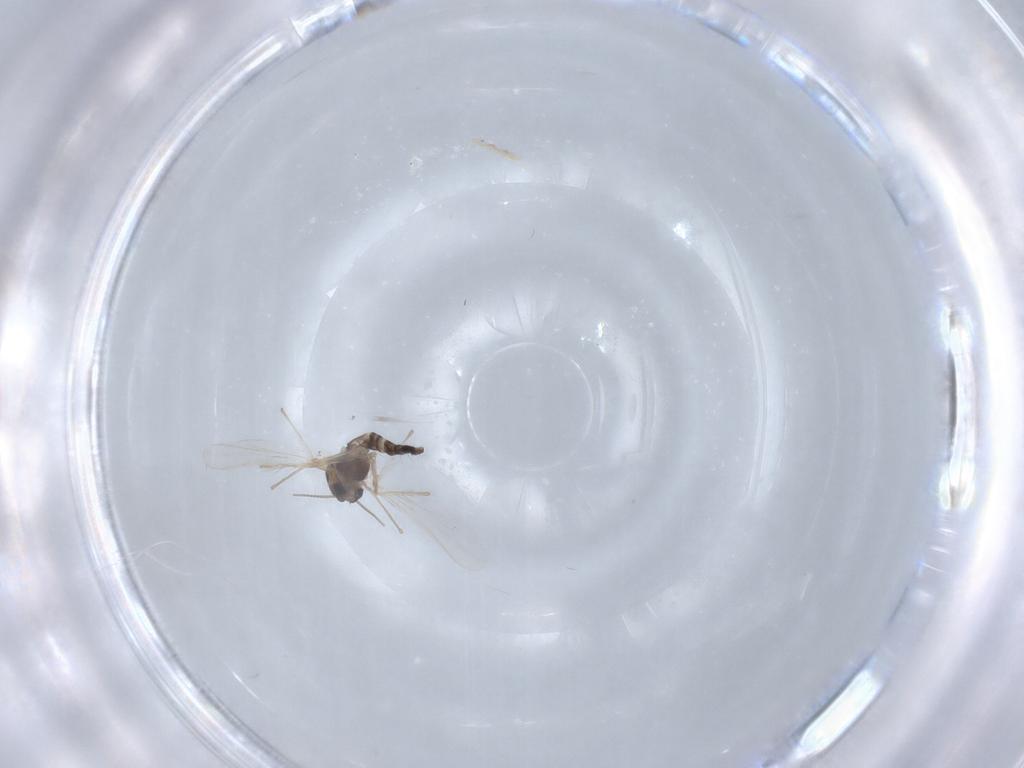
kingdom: Animalia
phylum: Arthropoda
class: Insecta
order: Diptera
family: Chironomidae
